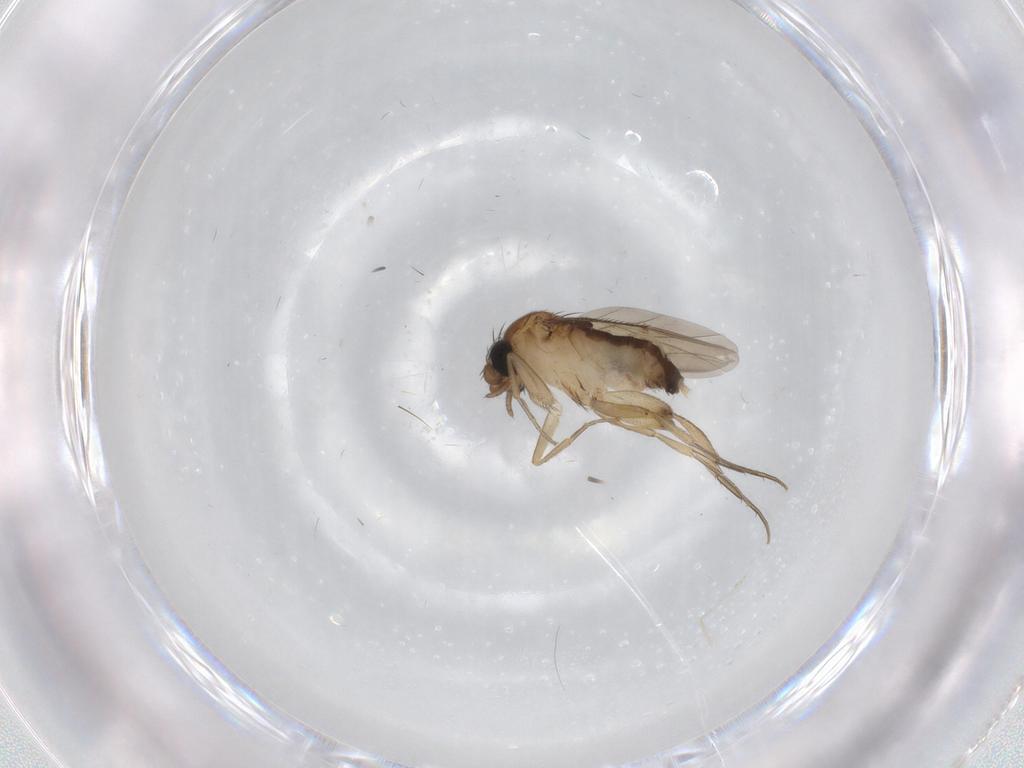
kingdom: Animalia
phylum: Arthropoda
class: Insecta
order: Diptera
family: Phoridae
